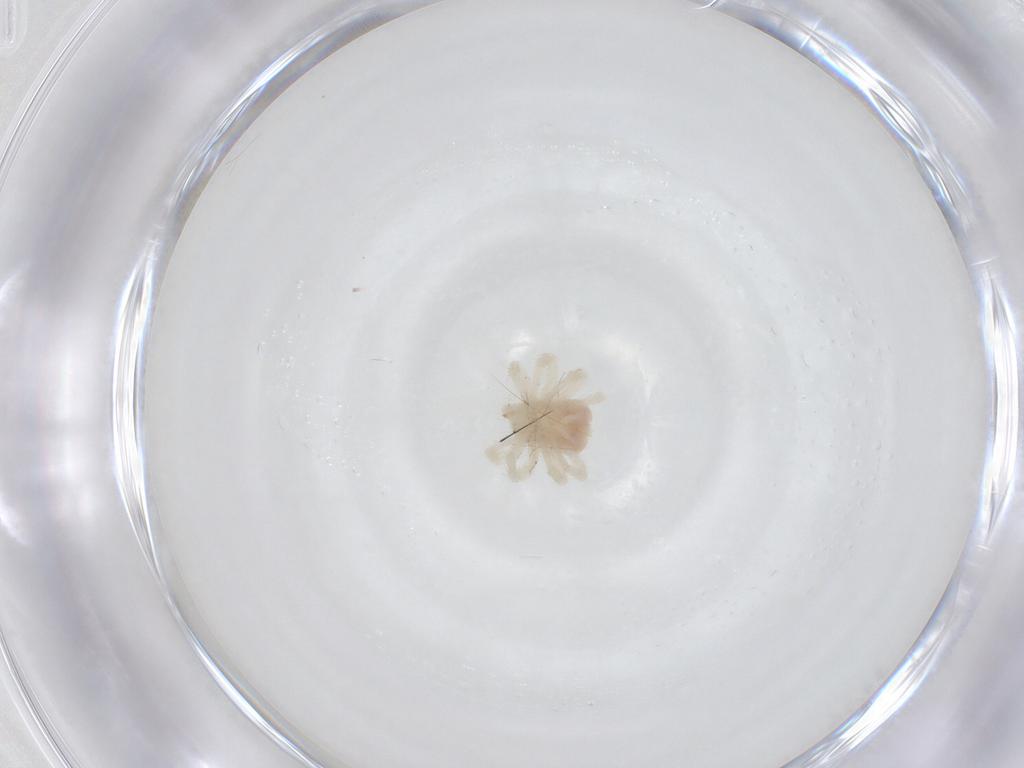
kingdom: Animalia
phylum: Arthropoda
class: Arachnida
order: Trombidiformes
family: Anystidae
